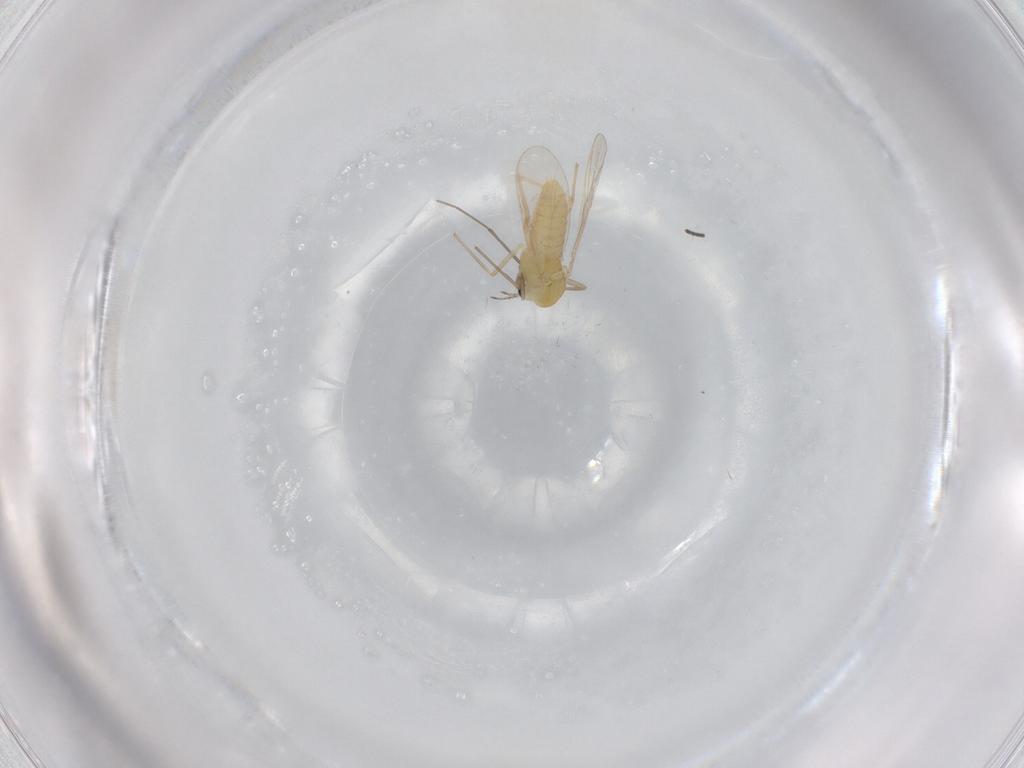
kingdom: Animalia
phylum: Arthropoda
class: Insecta
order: Diptera
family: Chironomidae
